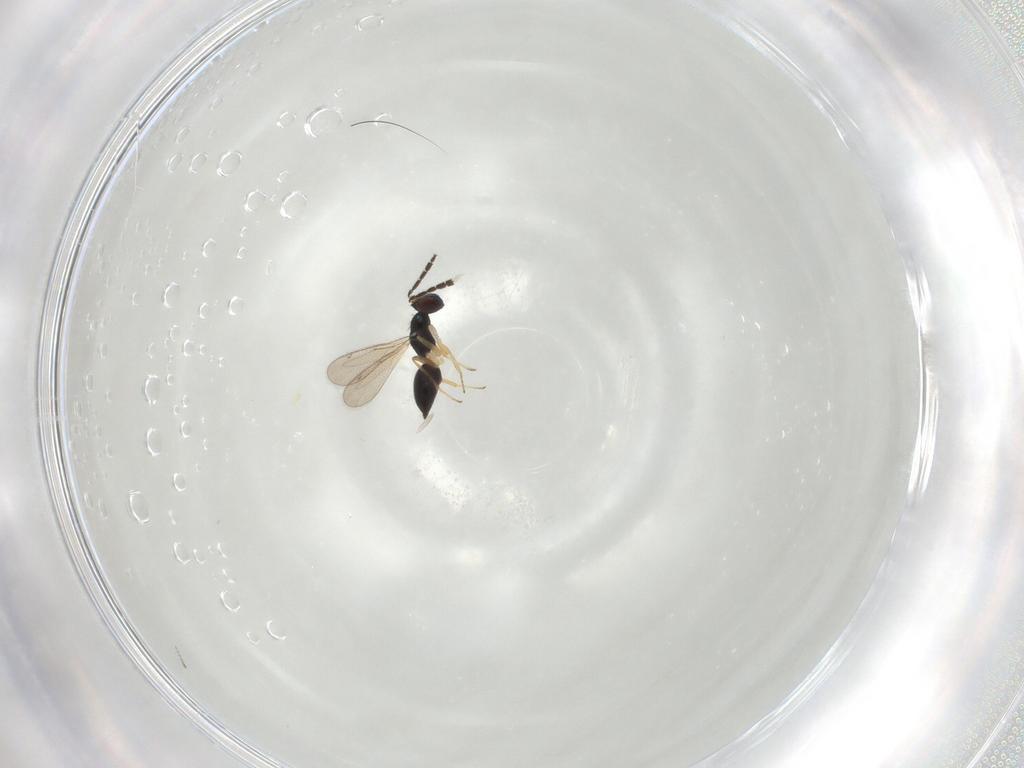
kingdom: Animalia
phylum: Arthropoda
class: Insecta
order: Diptera
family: Chironomidae
